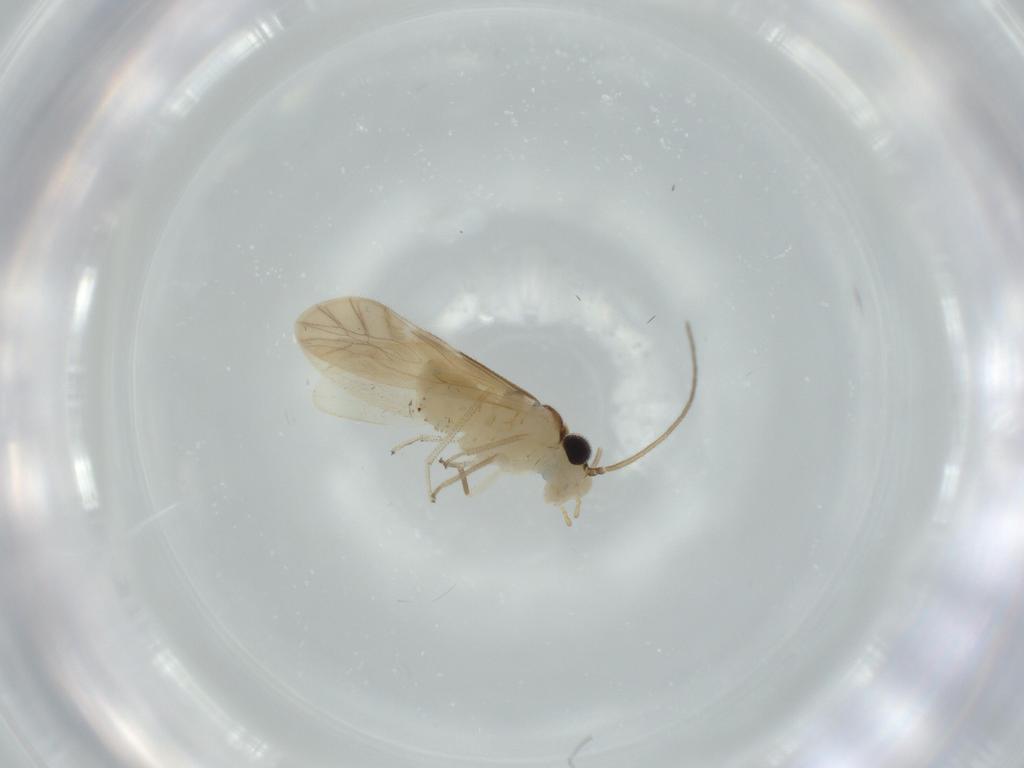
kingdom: Animalia
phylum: Arthropoda
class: Insecta
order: Psocodea
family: Caeciliusidae
